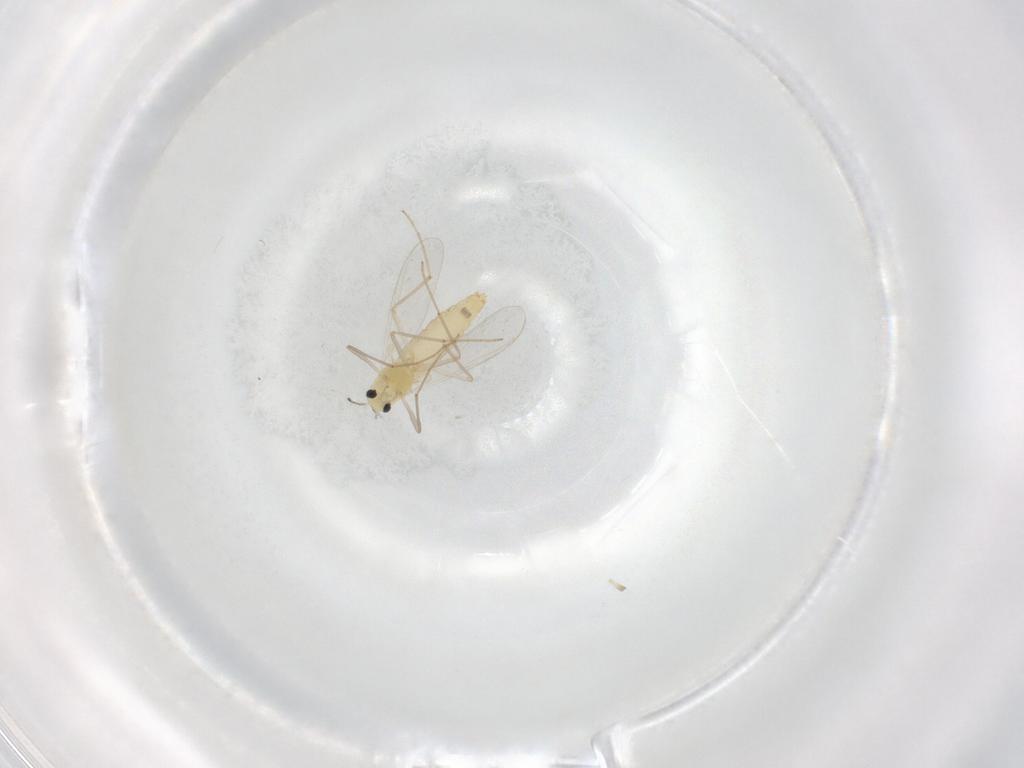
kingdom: Animalia
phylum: Arthropoda
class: Insecta
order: Diptera
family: Chironomidae
